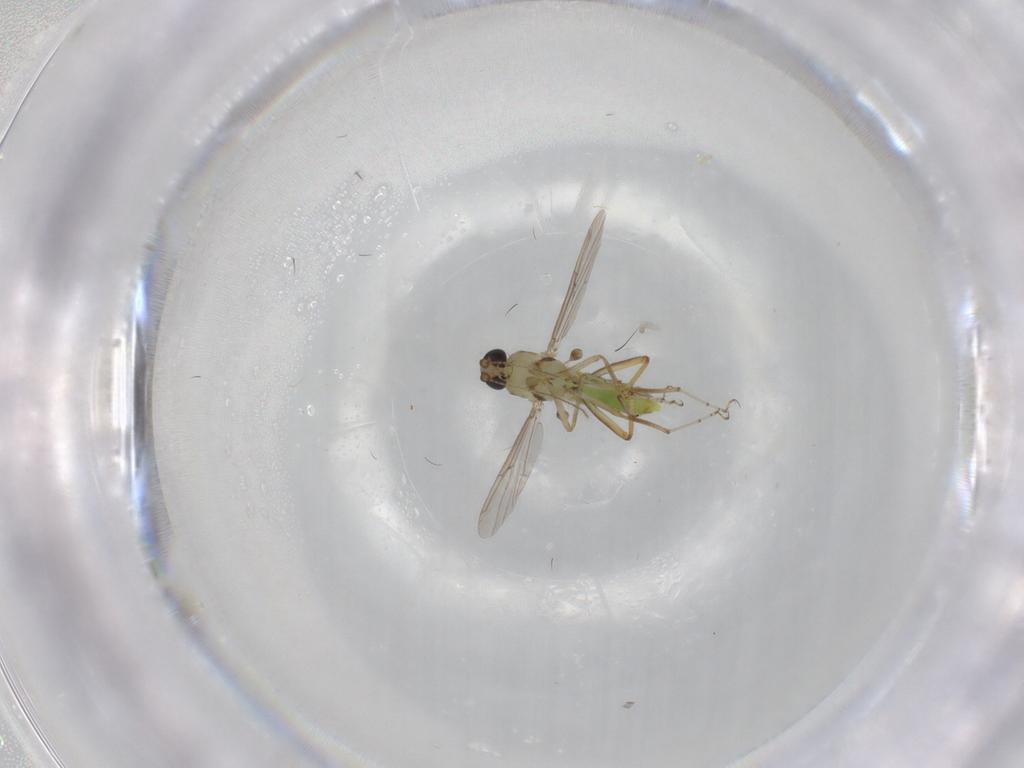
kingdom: Animalia
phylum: Arthropoda
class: Insecta
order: Diptera
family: Ceratopogonidae
